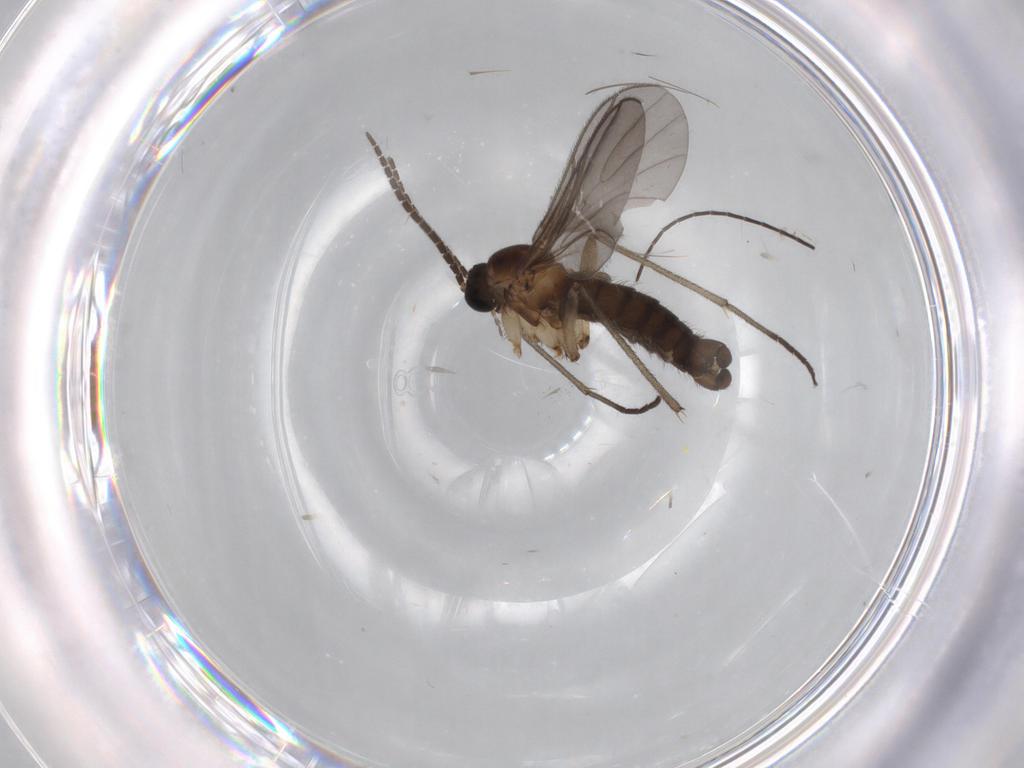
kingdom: Animalia
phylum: Arthropoda
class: Insecta
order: Diptera
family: Sciaridae
